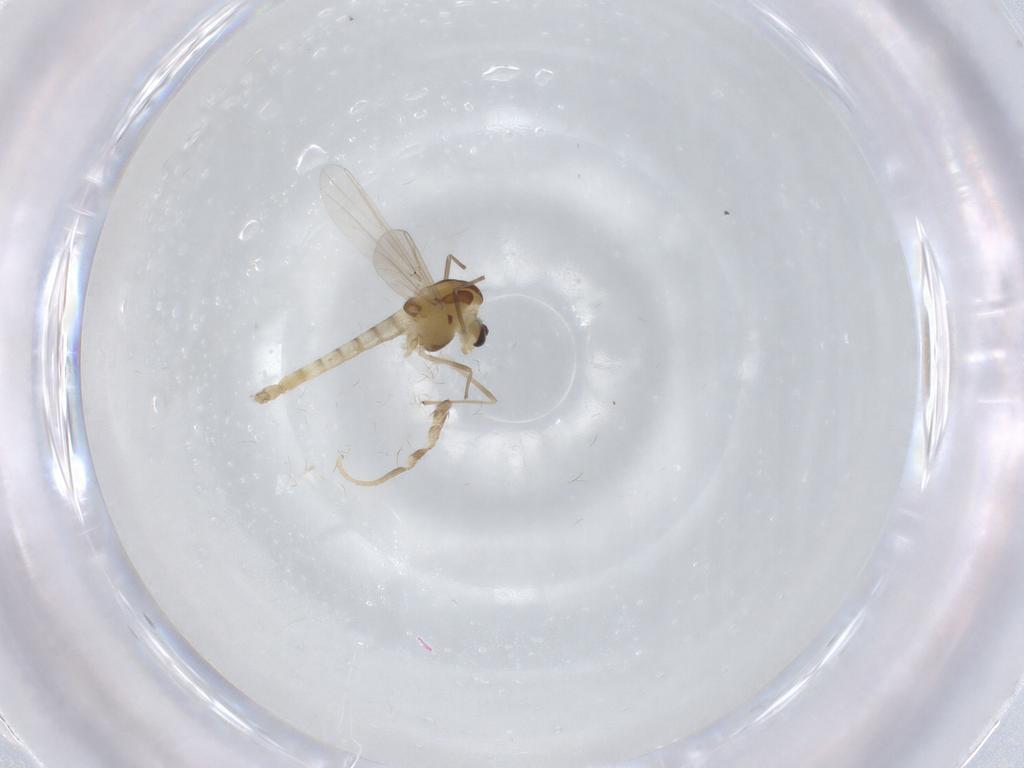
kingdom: Animalia
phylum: Arthropoda
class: Insecta
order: Diptera
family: Chironomidae
